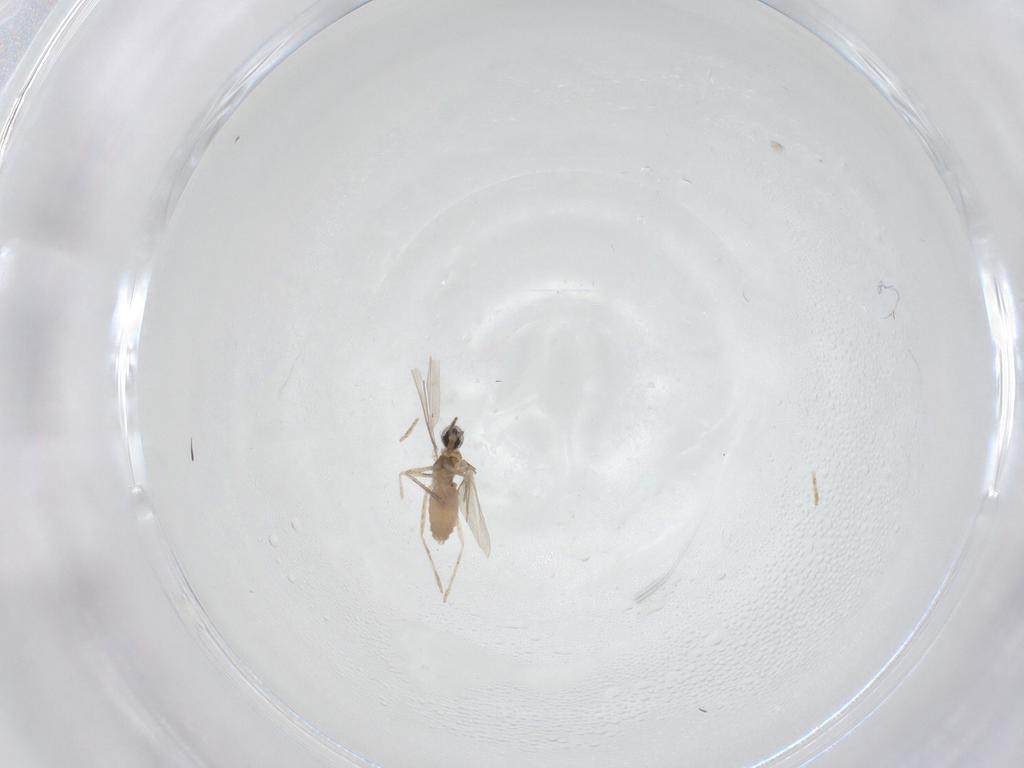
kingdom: Animalia
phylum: Arthropoda
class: Insecta
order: Diptera
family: Cecidomyiidae
